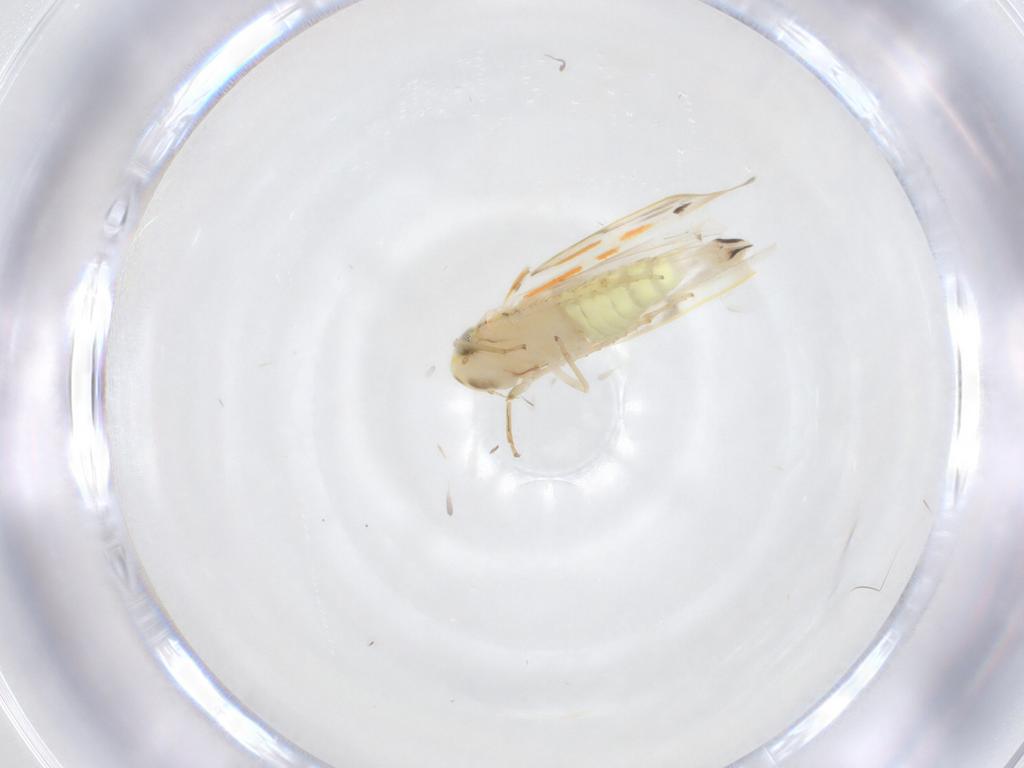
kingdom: Animalia
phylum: Arthropoda
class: Insecta
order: Hemiptera
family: Cicadellidae
